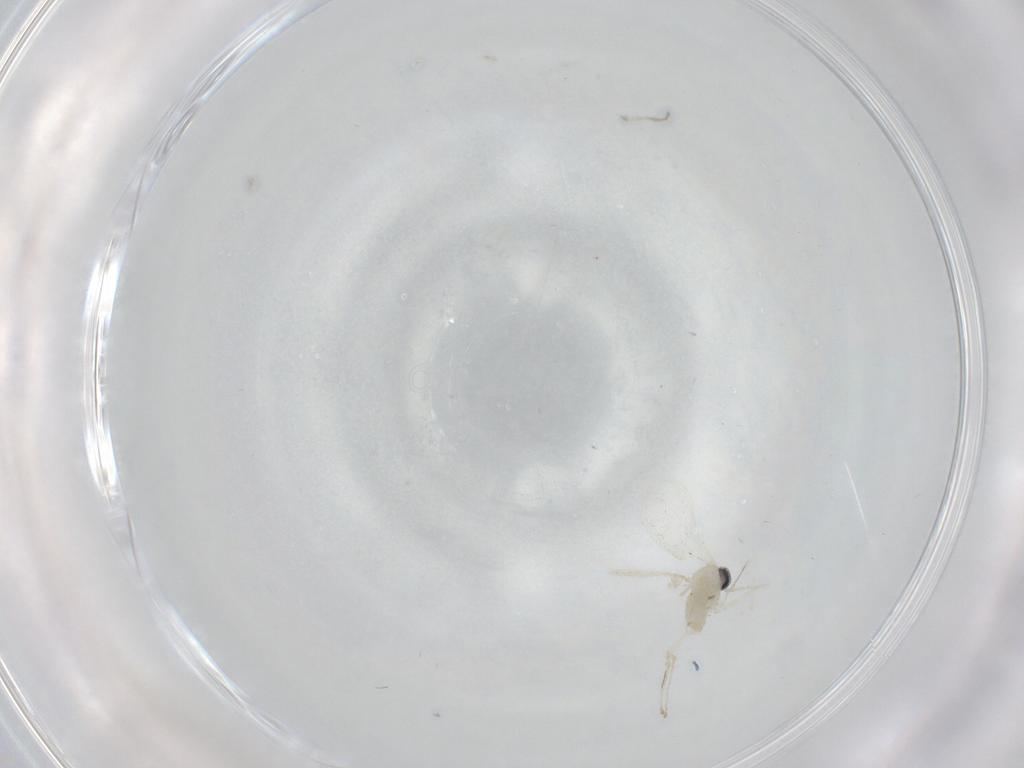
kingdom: Animalia
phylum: Arthropoda
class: Insecta
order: Diptera
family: Cecidomyiidae
